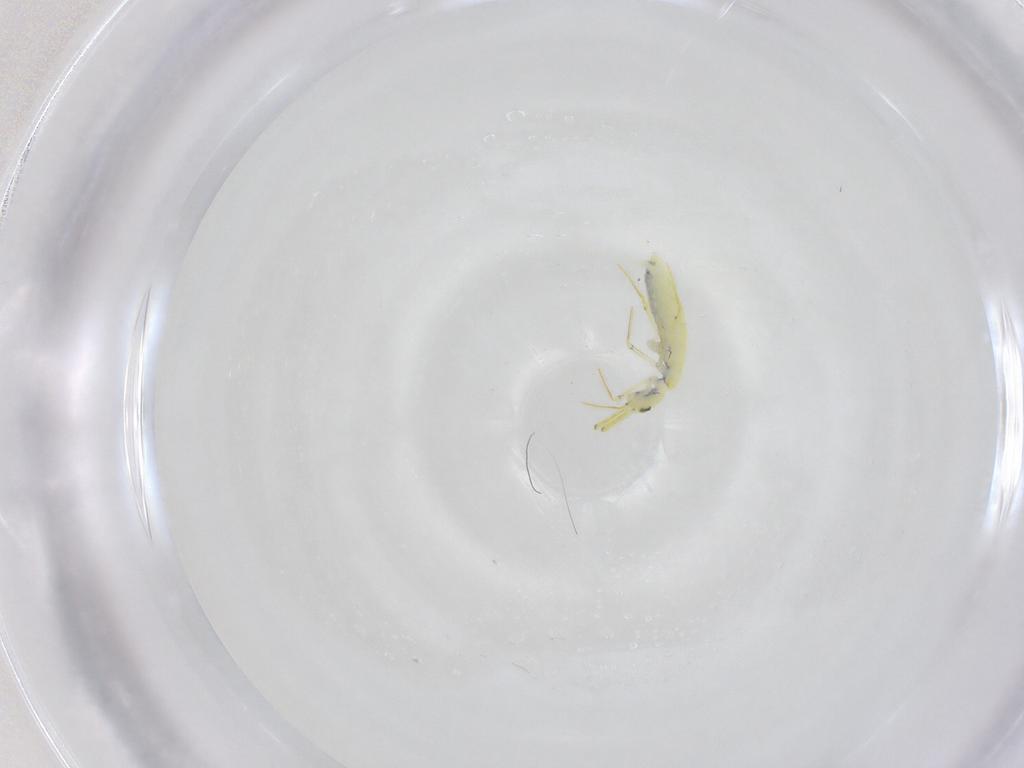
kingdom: Animalia
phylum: Arthropoda
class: Collembola
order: Entomobryomorpha
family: Entomobryidae
